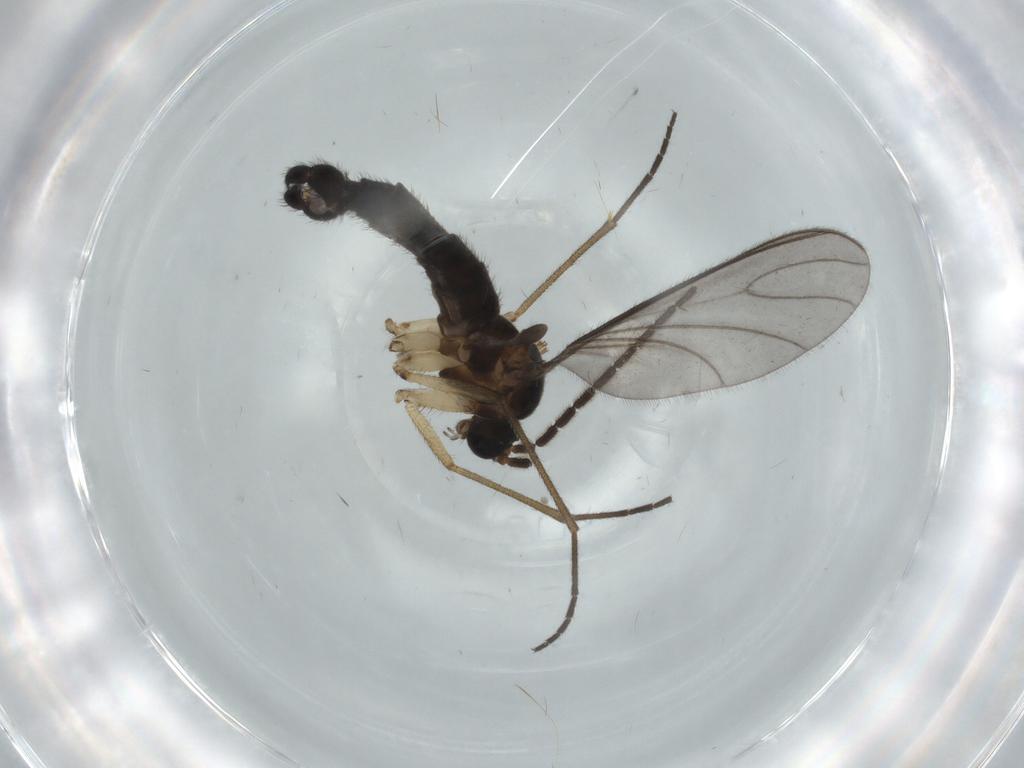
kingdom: Animalia
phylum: Arthropoda
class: Insecta
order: Diptera
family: Sciaridae
